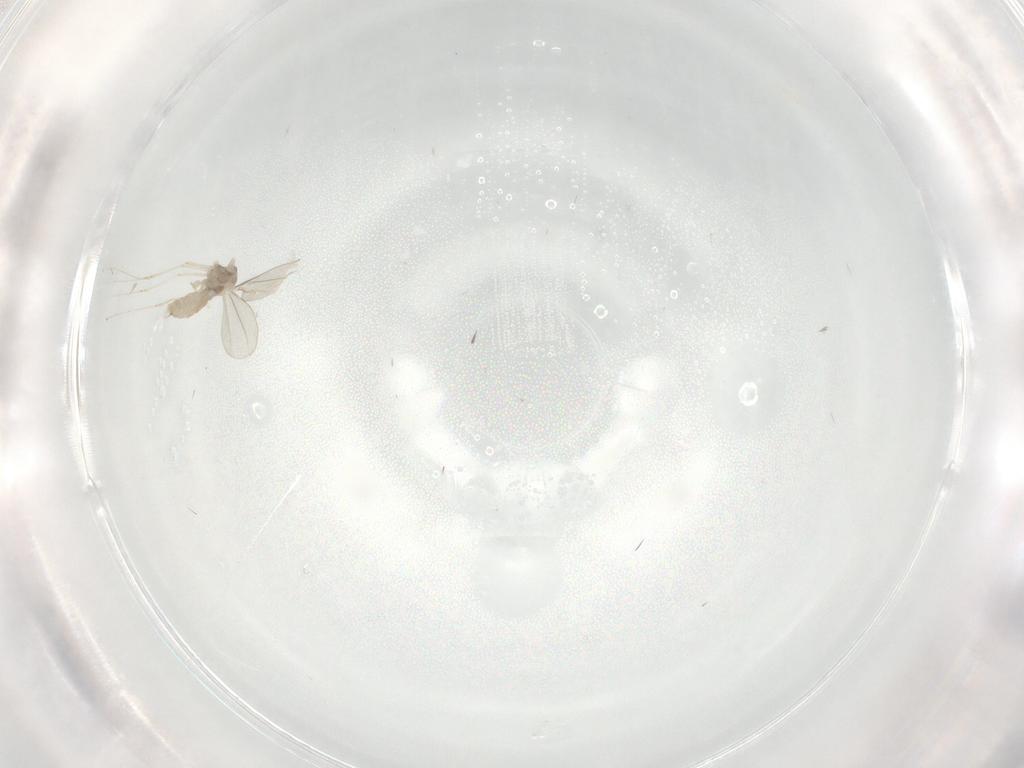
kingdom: Animalia
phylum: Arthropoda
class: Insecta
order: Diptera
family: Cecidomyiidae
